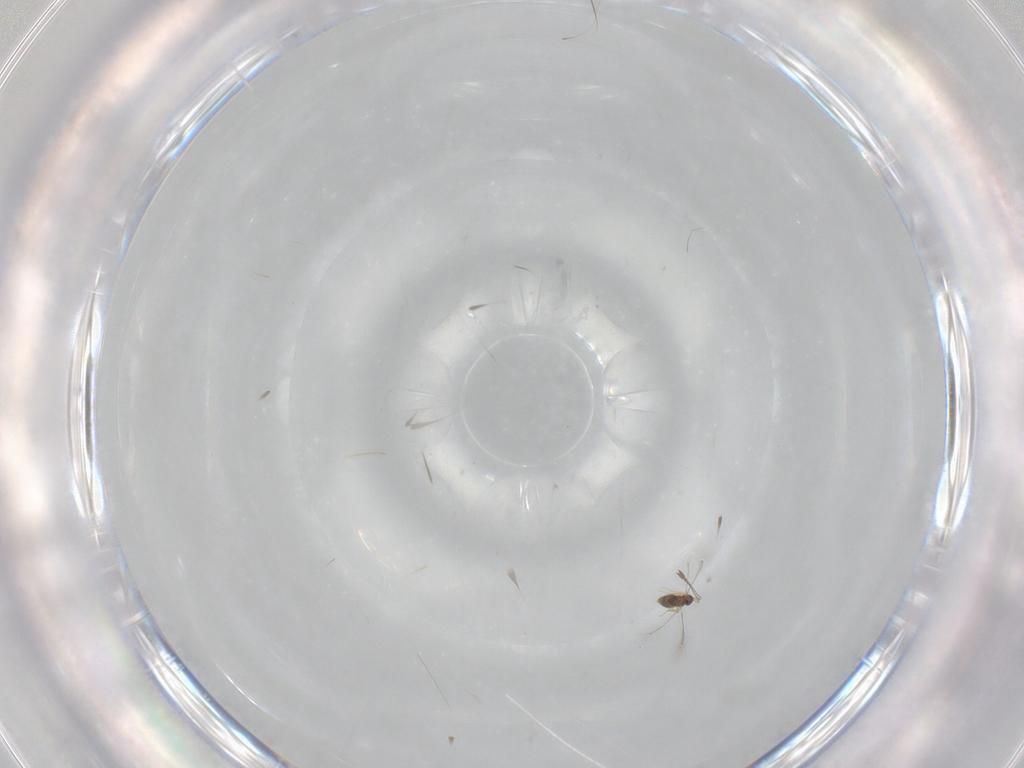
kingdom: Animalia
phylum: Arthropoda
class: Insecta
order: Hymenoptera
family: Mymaridae
